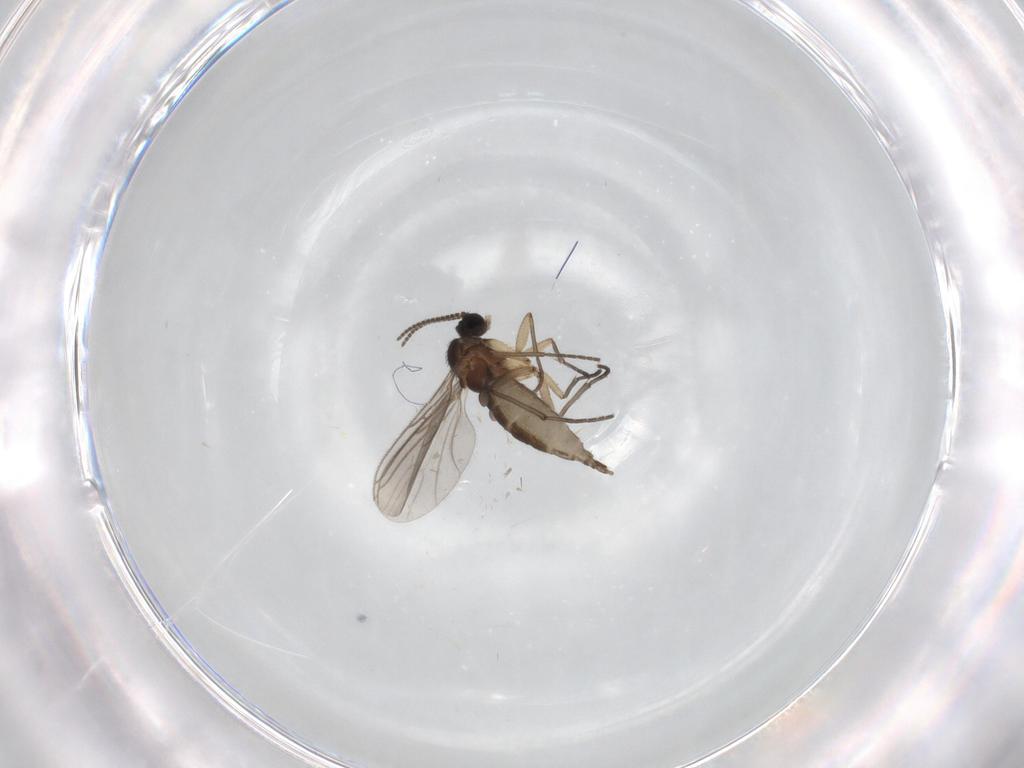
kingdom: Animalia
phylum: Arthropoda
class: Insecta
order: Diptera
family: Sciaridae
